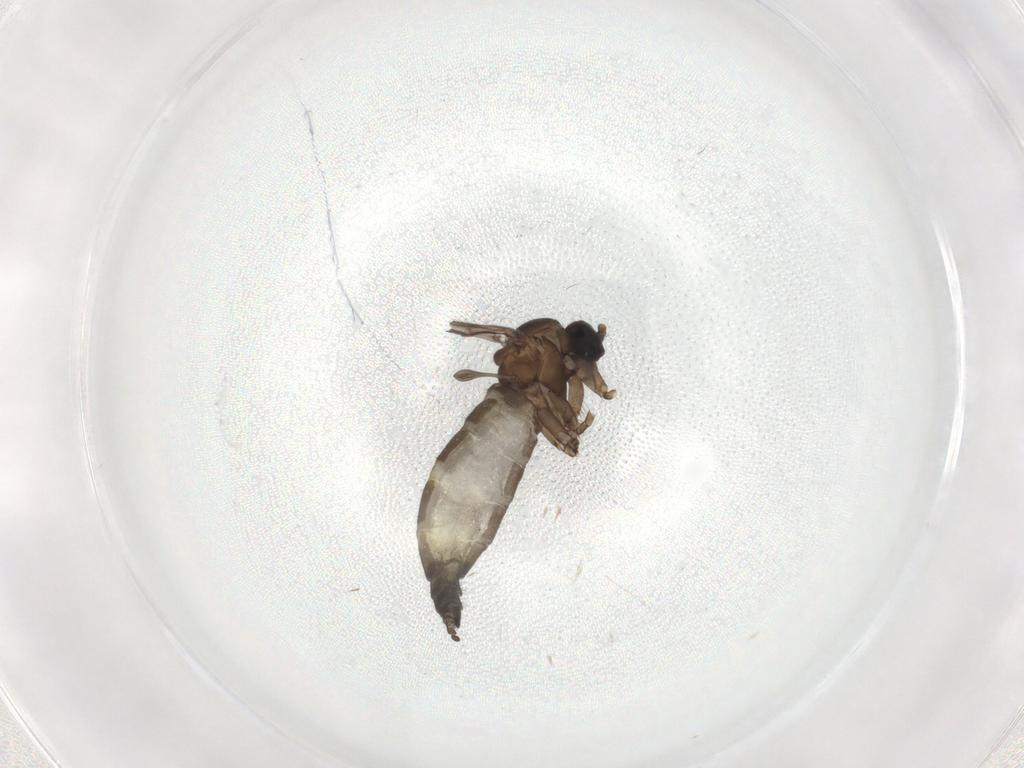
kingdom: Animalia
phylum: Arthropoda
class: Insecta
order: Diptera
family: Sciaridae
